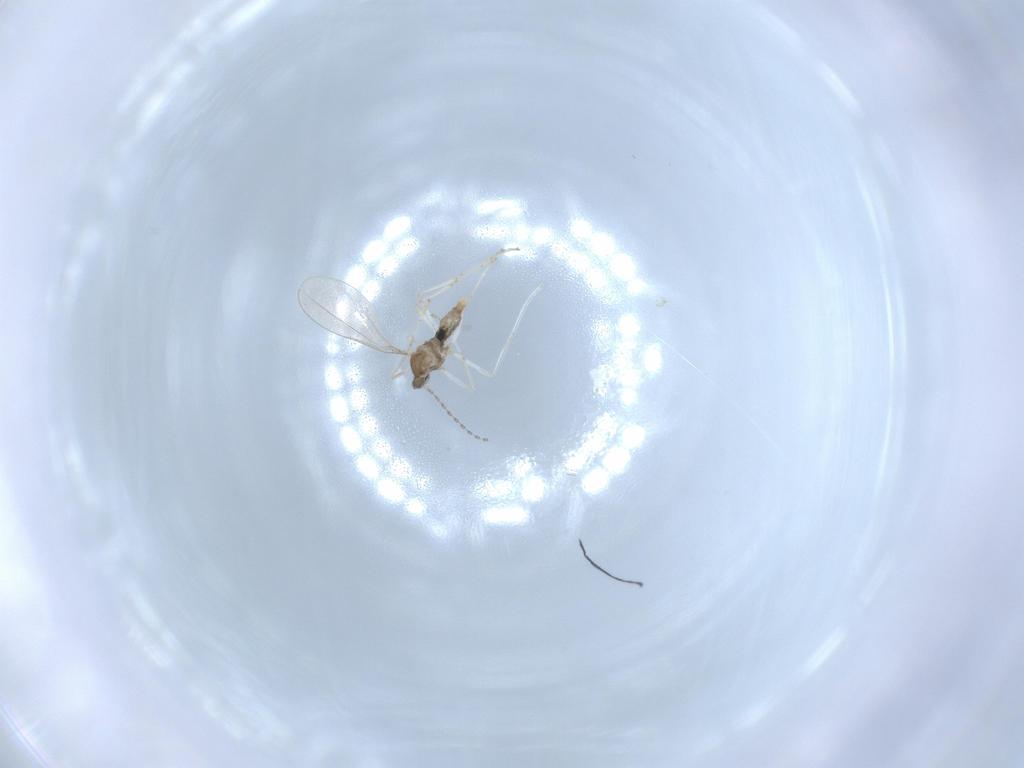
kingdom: Animalia
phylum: Arthropoda
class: Insecta
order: Diptera
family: Cecidomyiidae
